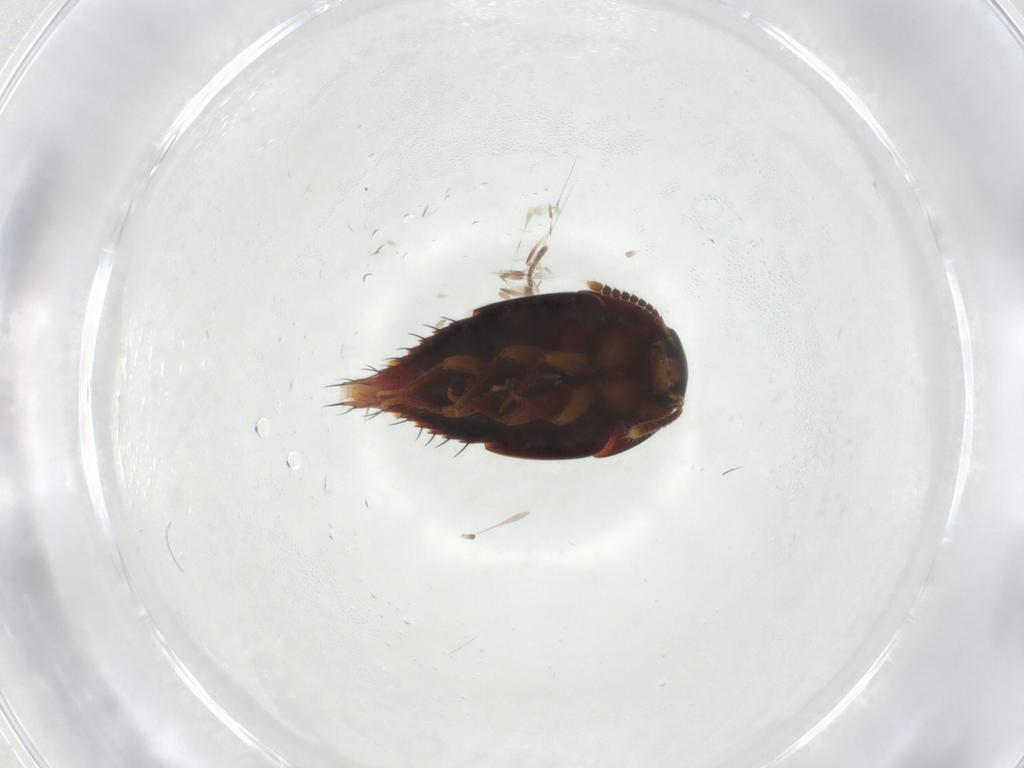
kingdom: Animalia
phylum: Arthropoda
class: Insecta
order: Coleoptera
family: Staphylinidae
